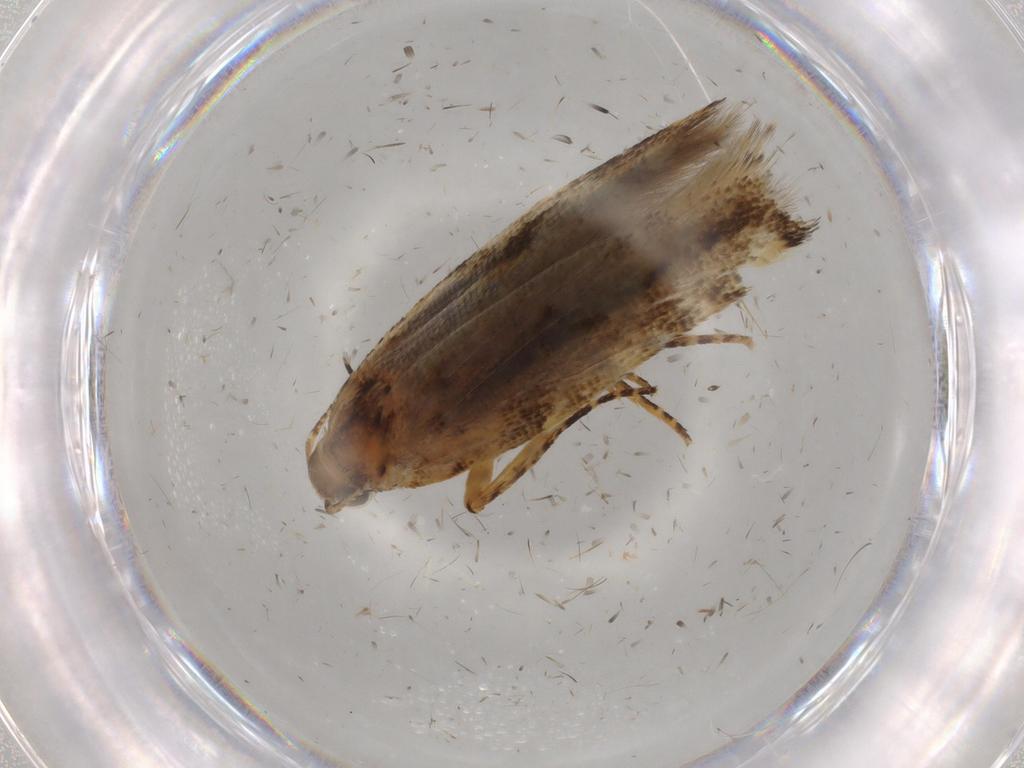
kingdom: Animalia
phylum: Arthropoda
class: Insecta
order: Lepidoptera
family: Gelechiidae
